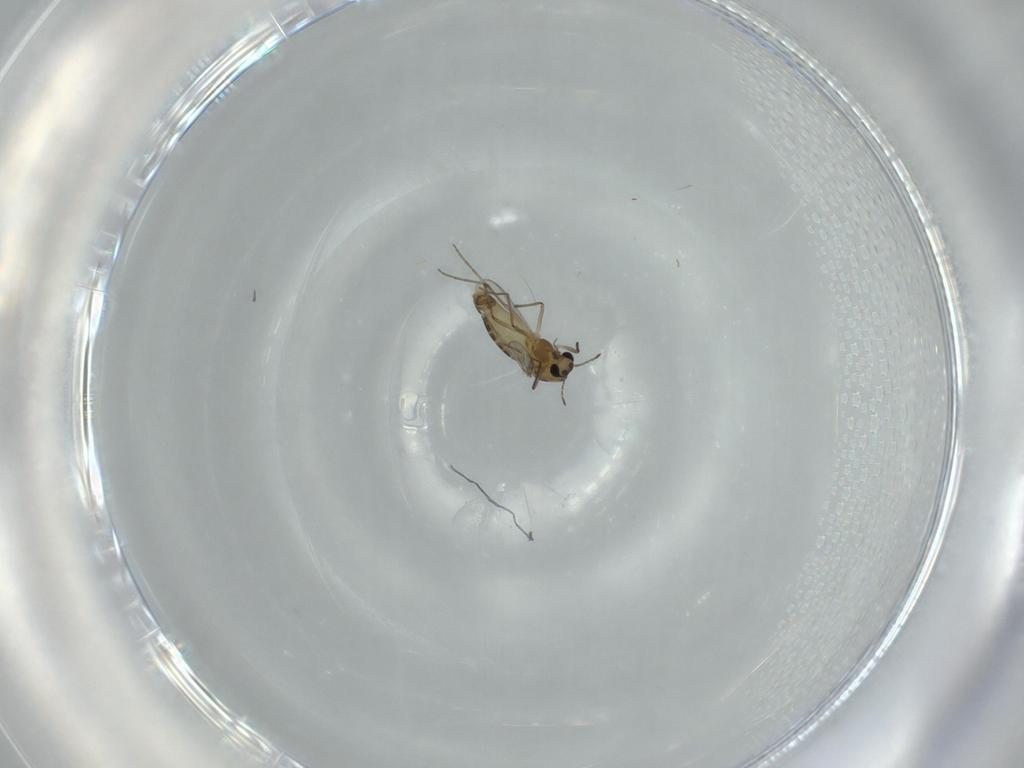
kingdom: Animalia
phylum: Arthropoda
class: Insecta
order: Diptera
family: Chironomidae
